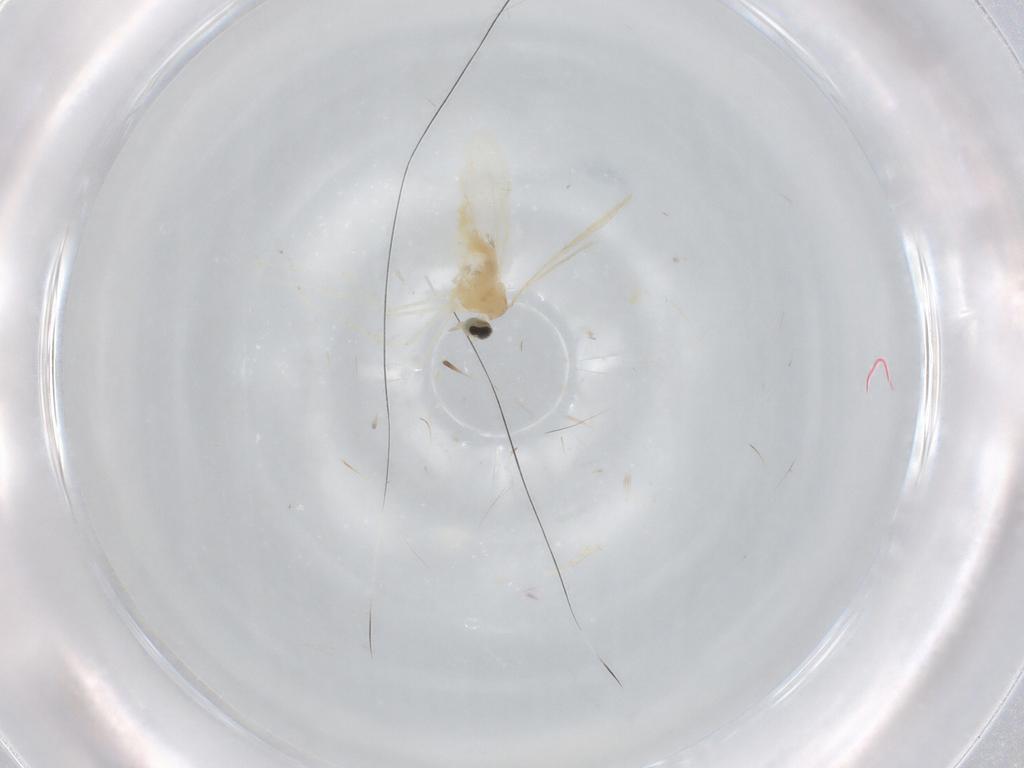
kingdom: Animalia
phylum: Arthropoda
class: Insecta
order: Diptera
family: Cecidomyiidae
